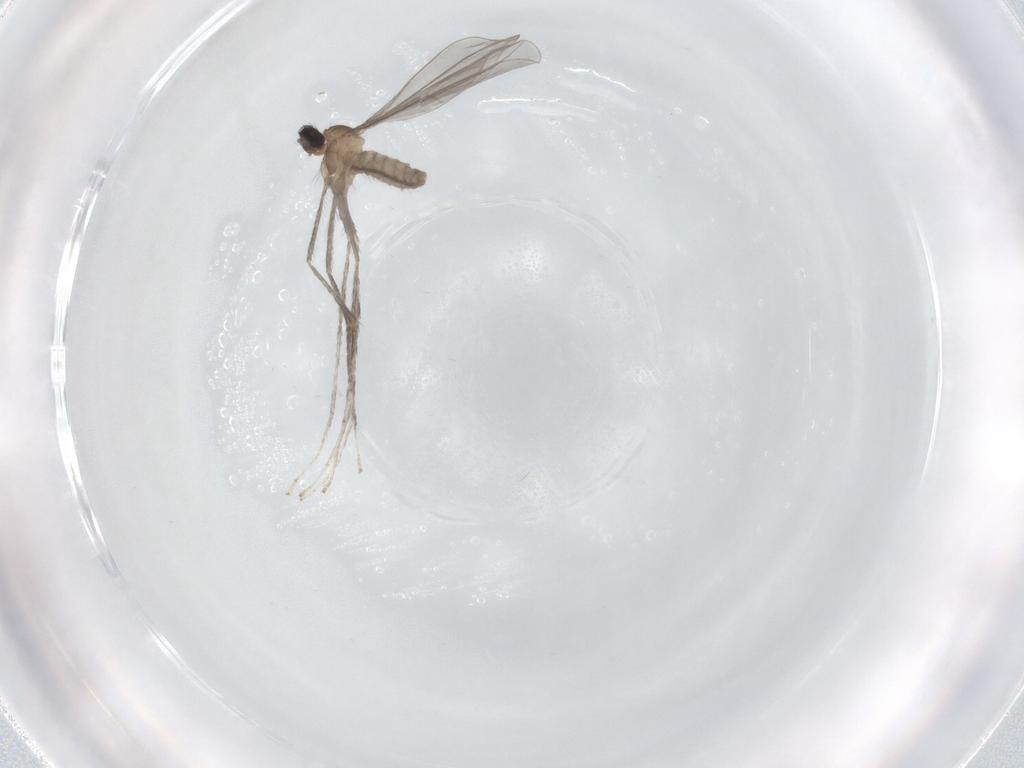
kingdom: Animalia
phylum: Arthropoda
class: Insecta
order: Diptera
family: Cecidomyiidae
